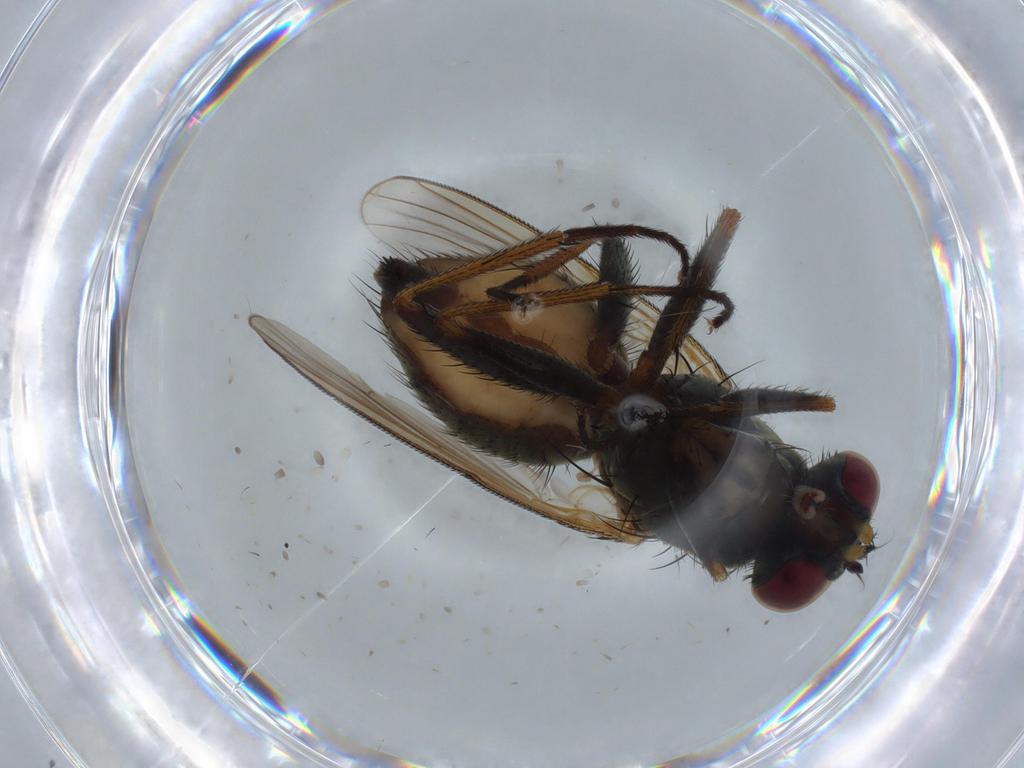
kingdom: Animalia
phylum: Arthropoda
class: Insecta
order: Diptera
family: Muscidae
